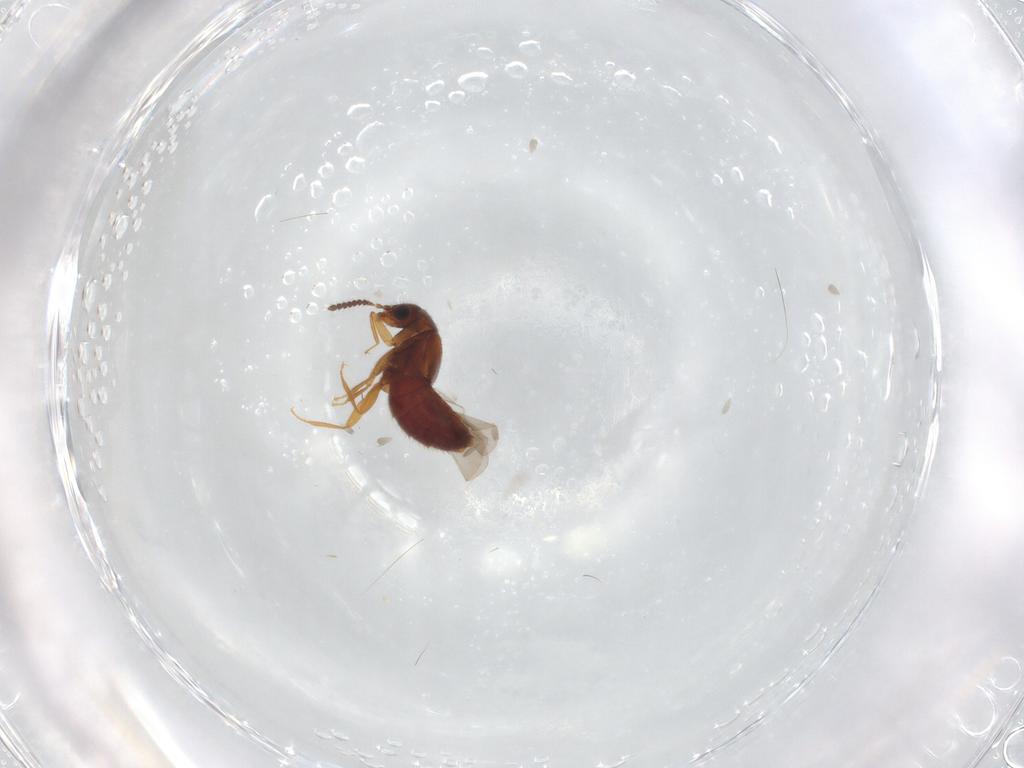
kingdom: Animalia
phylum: Arthropoda
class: Insecta
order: Coleoptera
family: Staphylinidae
